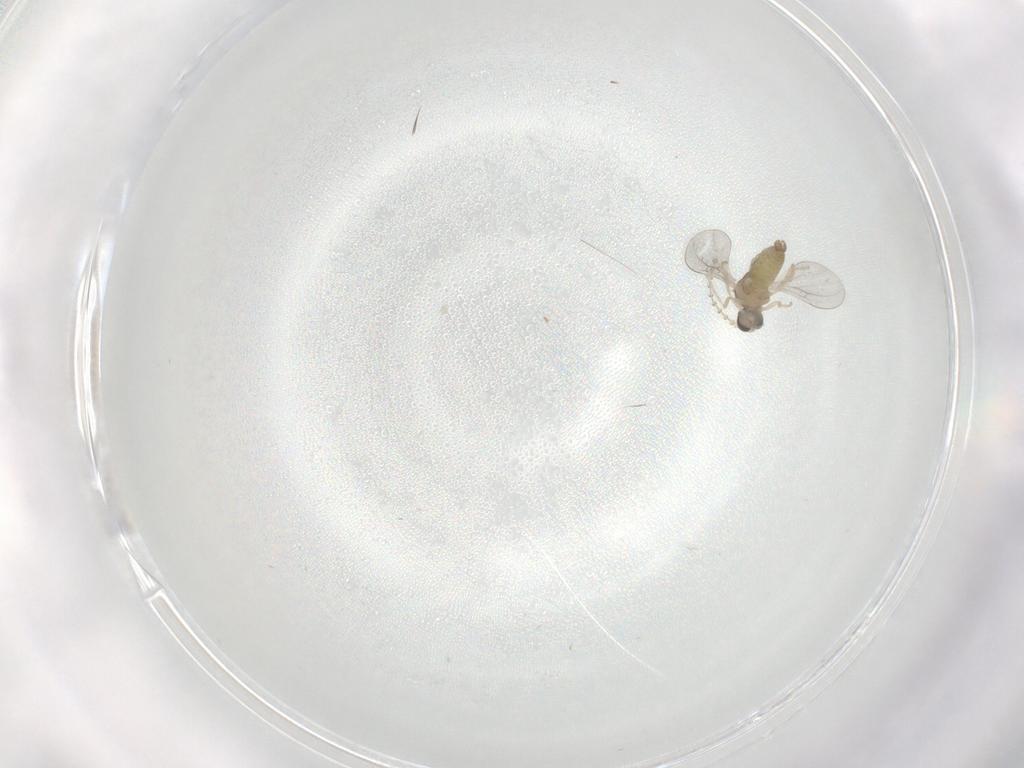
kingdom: Animalia
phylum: Arthropoda
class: Insecta
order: Diptera
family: Cecidomyiidae
